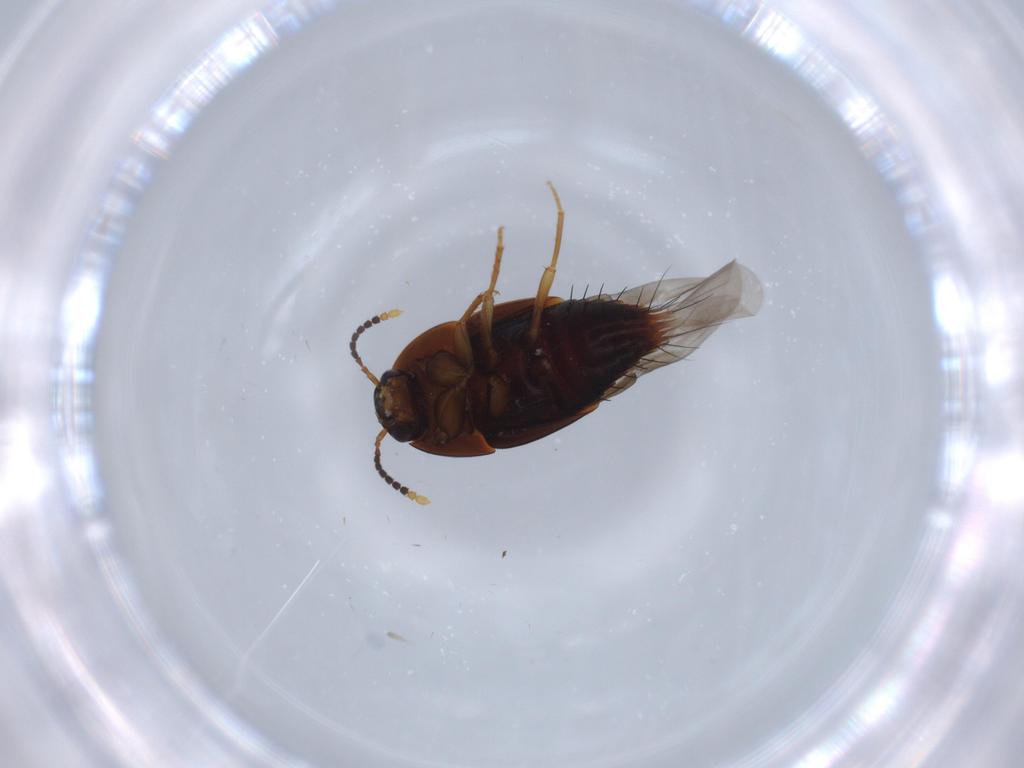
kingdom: Animalia
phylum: Arthropoda
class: Insecta
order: Coleoptera
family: Staphylinidae
